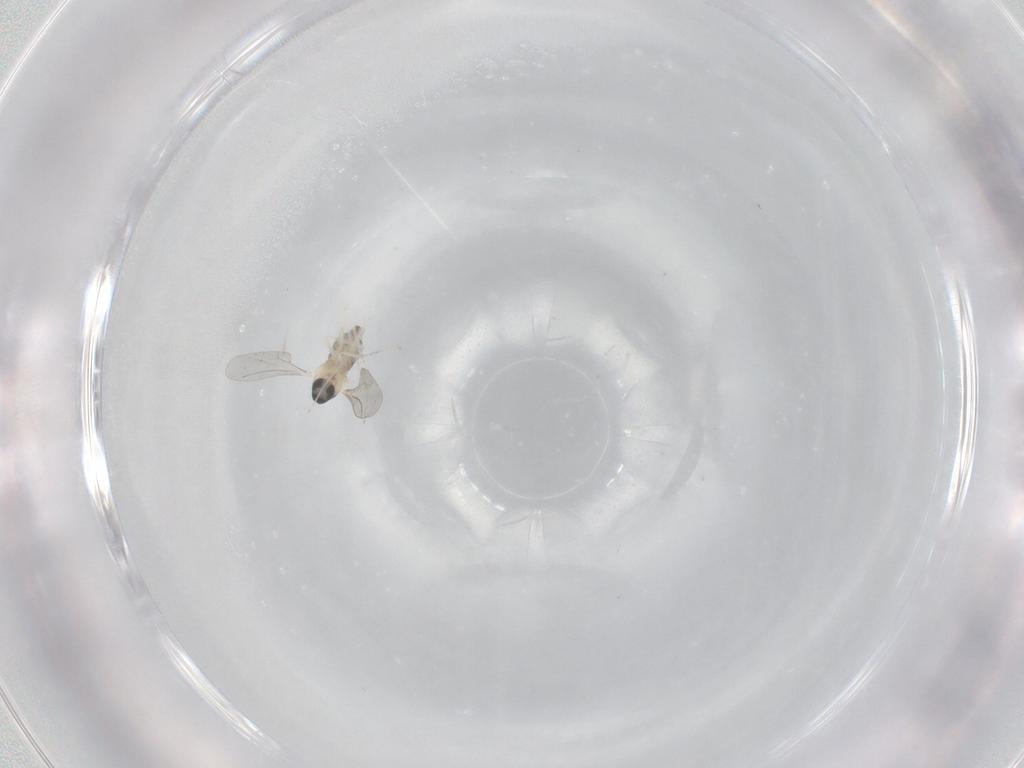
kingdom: Animalia
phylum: Arthropoda
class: Insecta
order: Diptera
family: Cecidomyiidae
